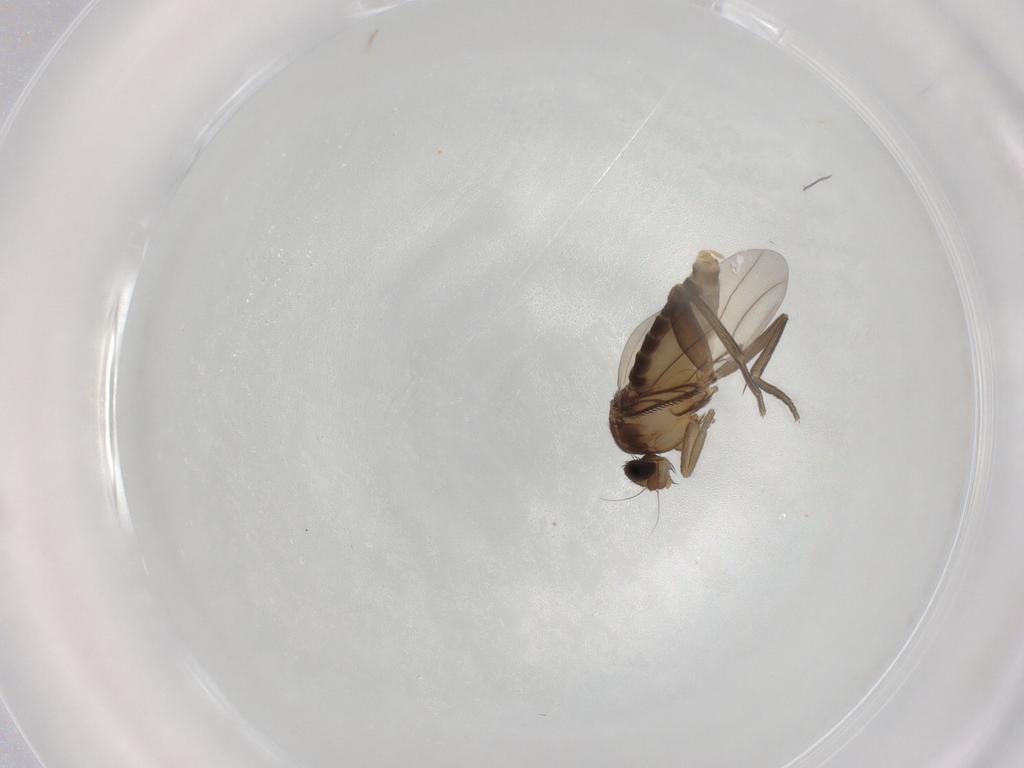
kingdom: Animalia
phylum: Arthropoda
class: Insecta
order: Diptera
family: Phoridae
